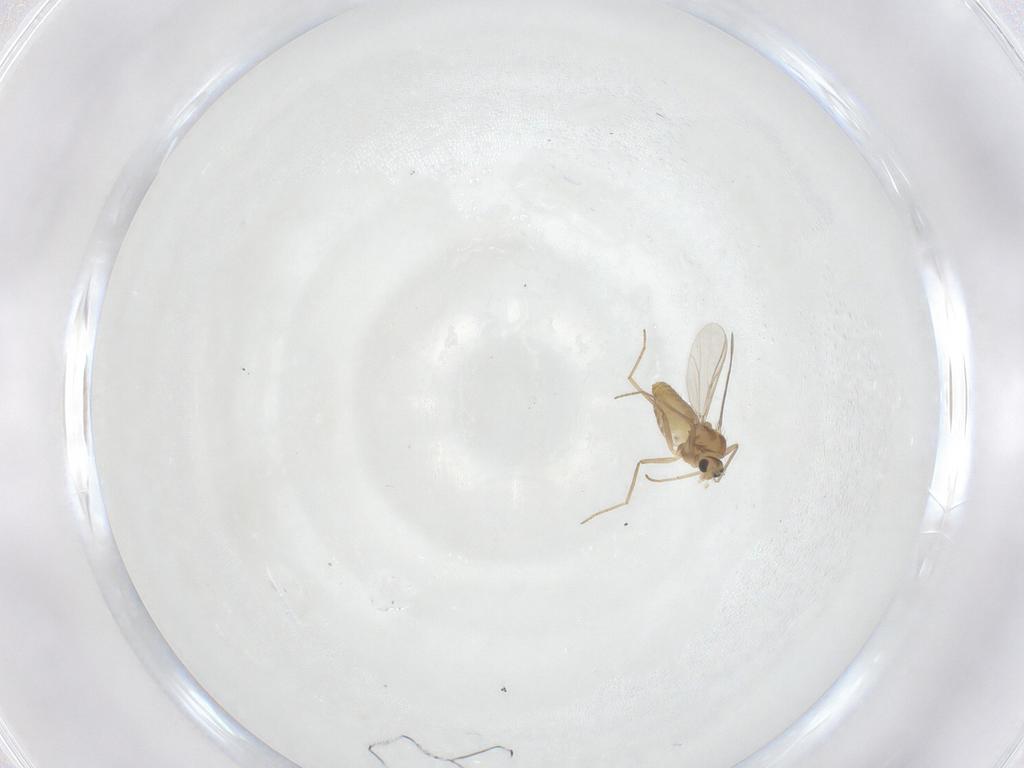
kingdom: Animalia
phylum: Arthropoda
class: Insecta
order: Diptera
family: Chironomidae
